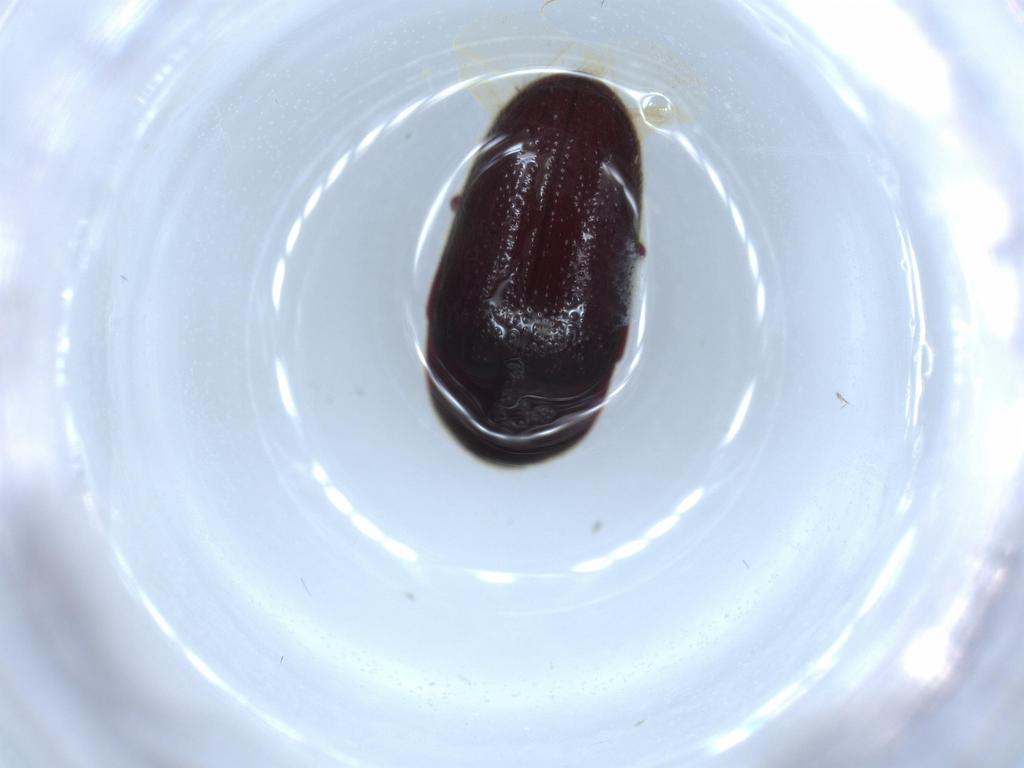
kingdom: Animalia
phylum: Arthropoda
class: Insecta
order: Coleoptera
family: Throscidae
